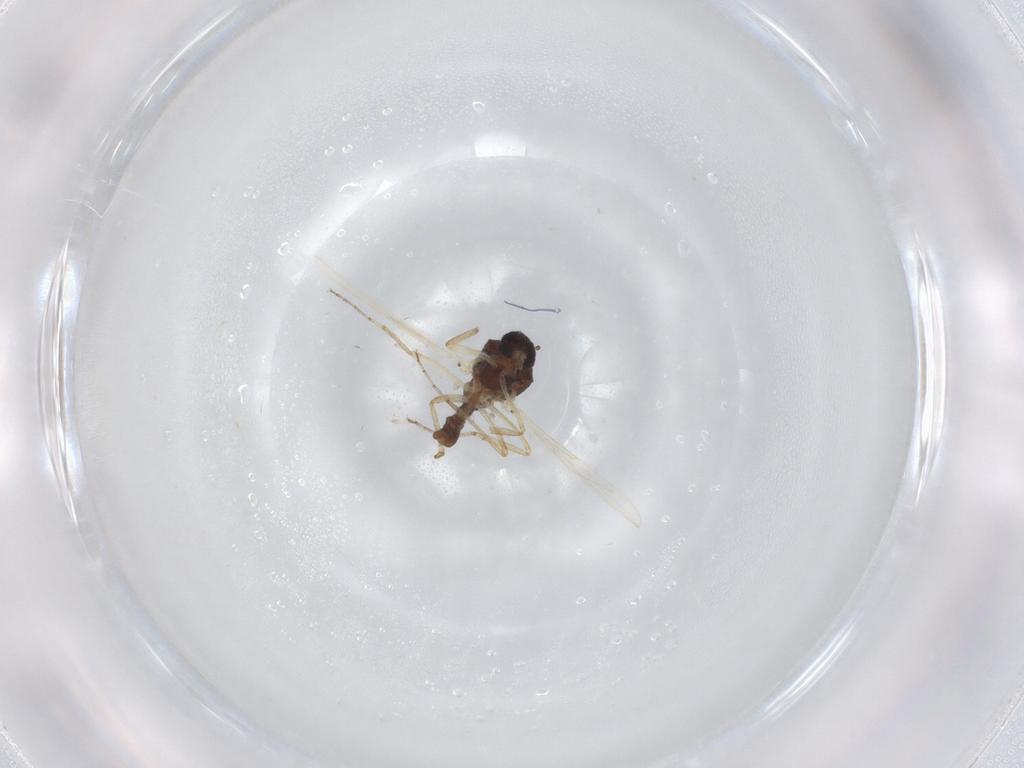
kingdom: Animalia
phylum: Arthropoda
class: Insecta
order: Diptera
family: Ceratopogonidae
